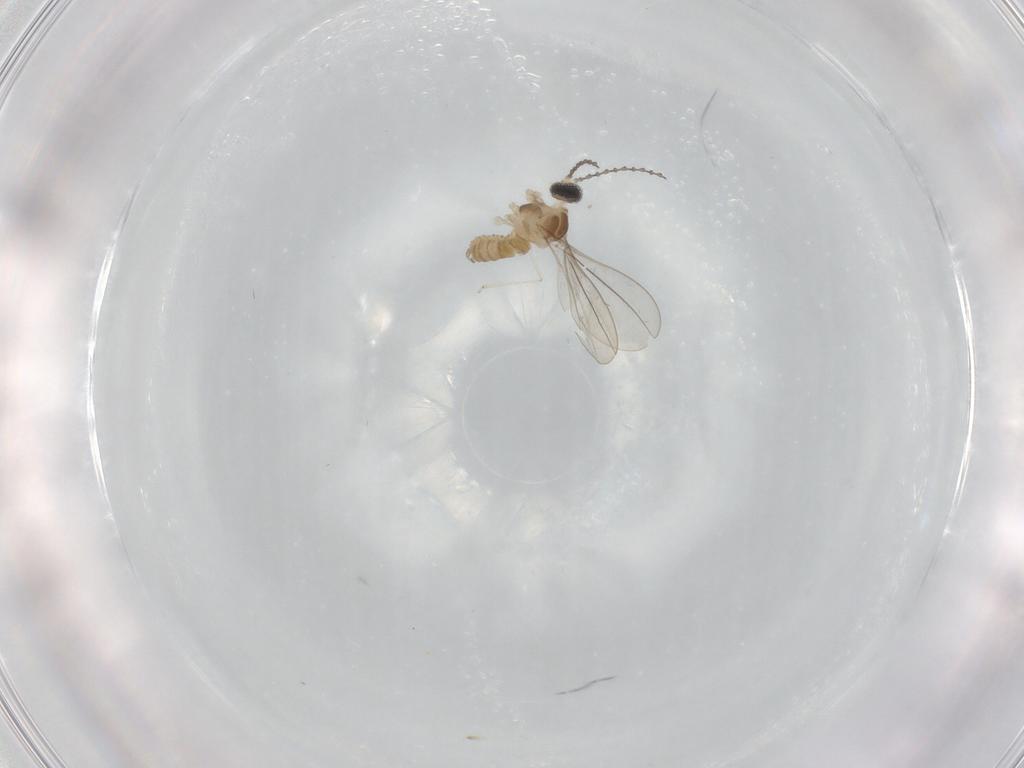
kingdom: Animalia
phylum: Arthropoda
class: Insecta
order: Diptera
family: Cecidomyiidae
